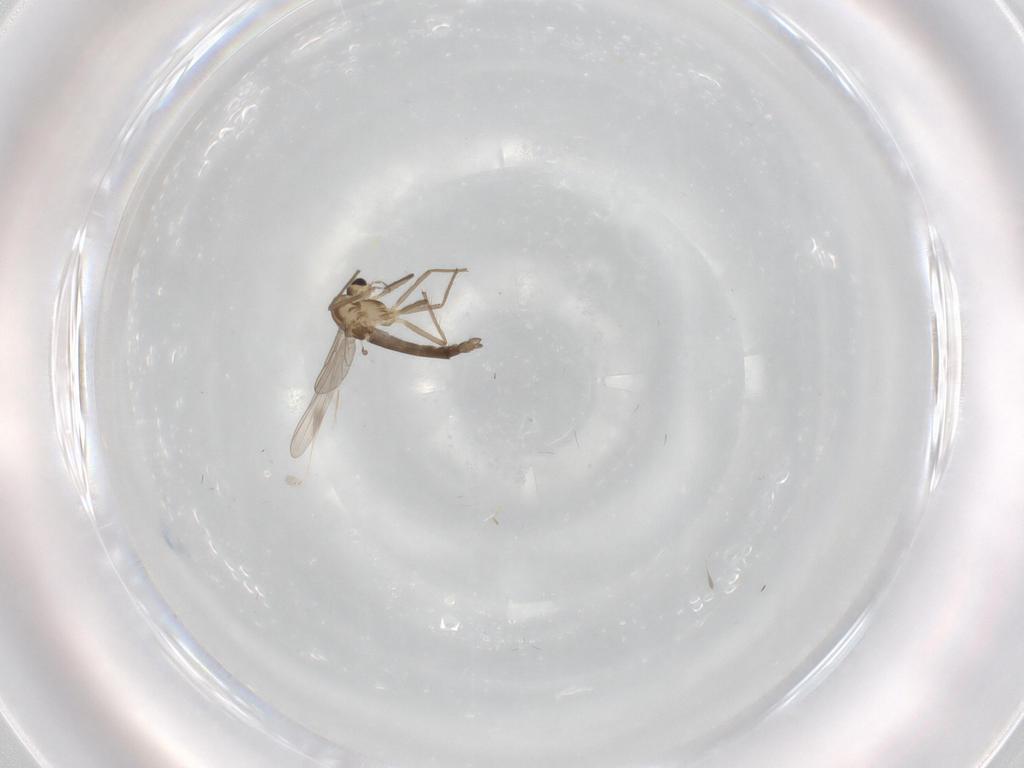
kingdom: Animalia
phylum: Arthropoda
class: Insecta
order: Diptera
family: Chironomidae
